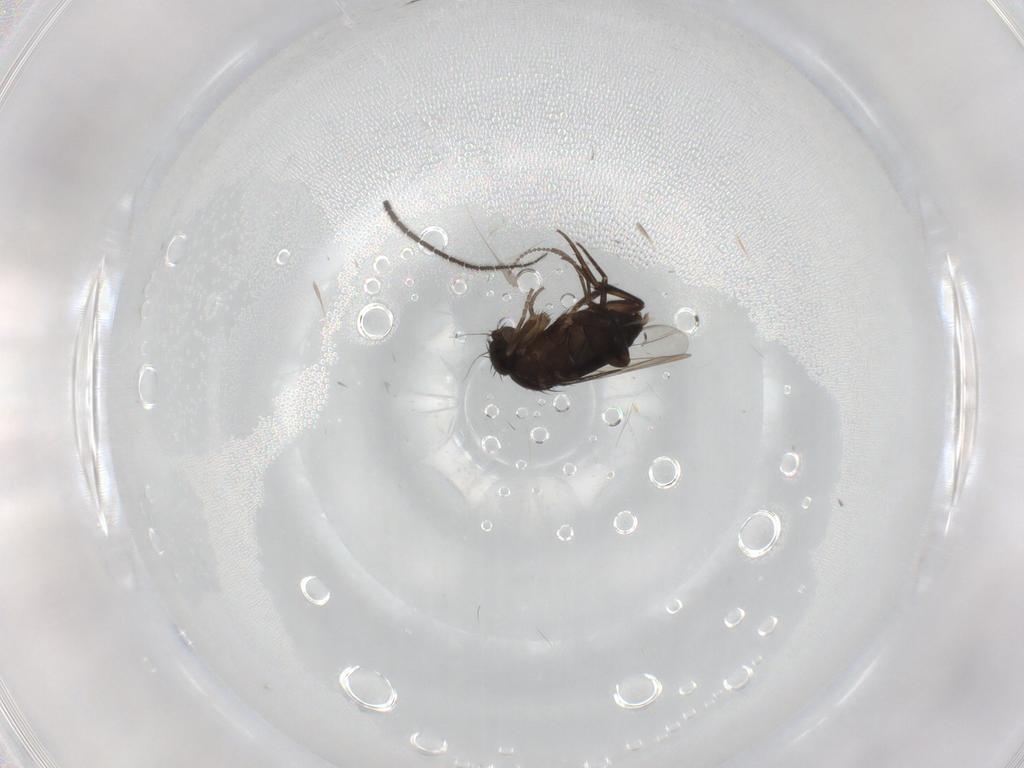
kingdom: Animalia
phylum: Arthropoda
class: Insecta
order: Diptera
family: Phoridae
